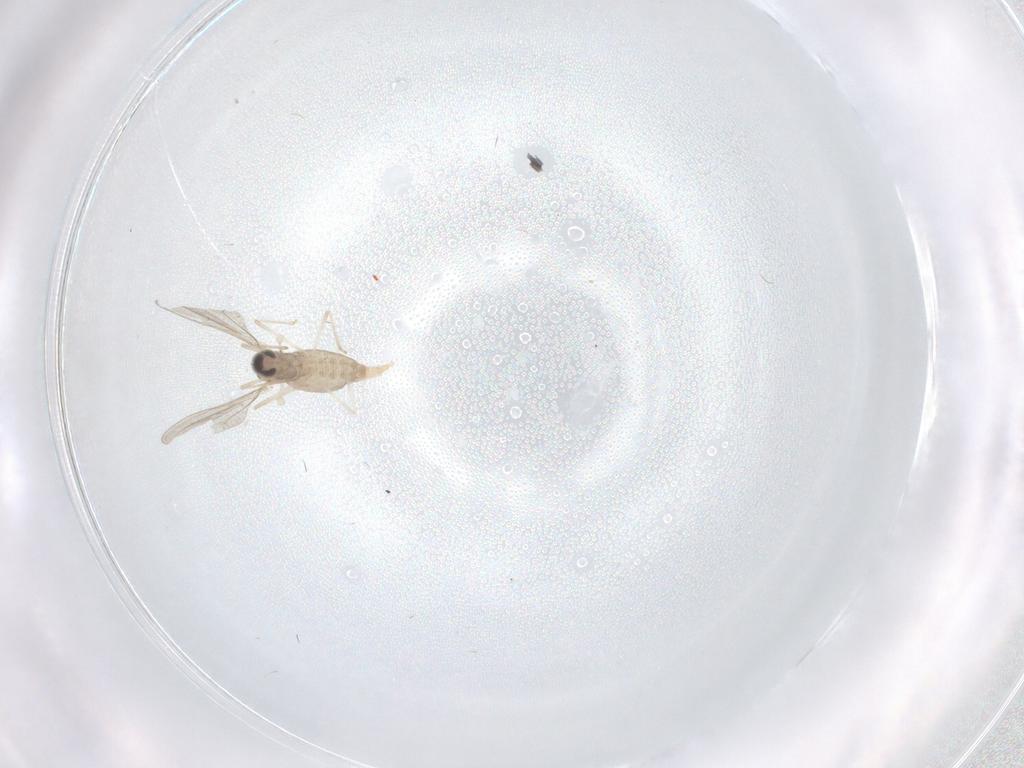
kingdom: Animalia
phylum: Arthropoda
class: Insecta
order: Diptera
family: Cecidomyiidae
